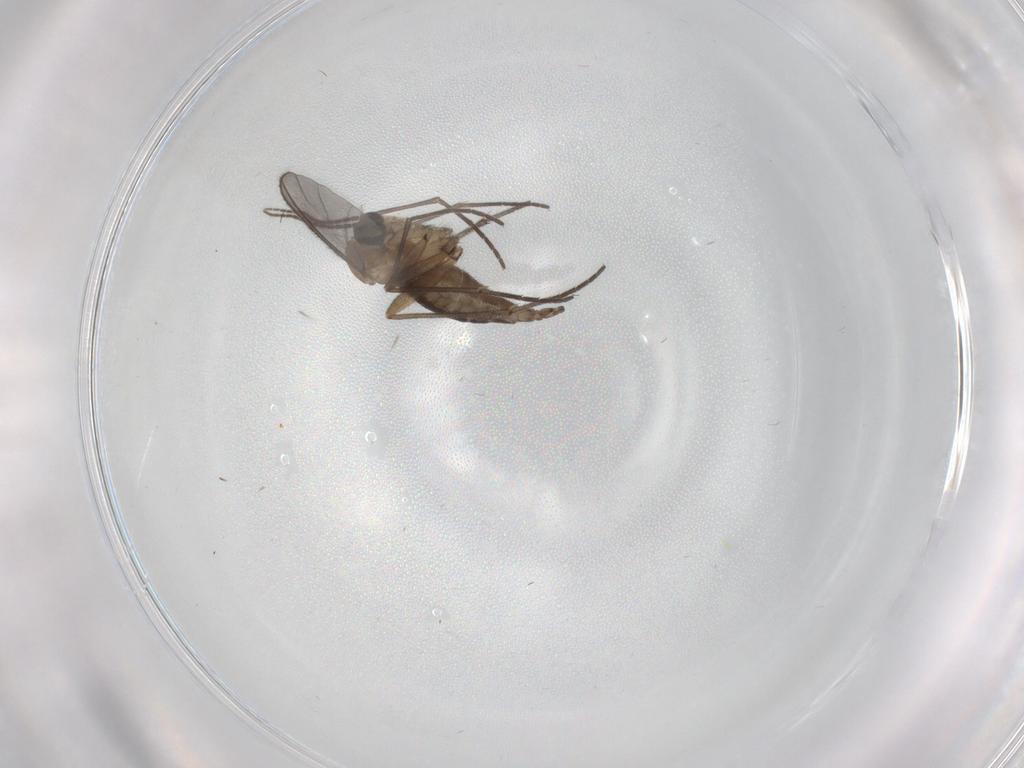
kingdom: Animalia
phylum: Arthropoda
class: Insecta
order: Diptera
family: Sciaridae
